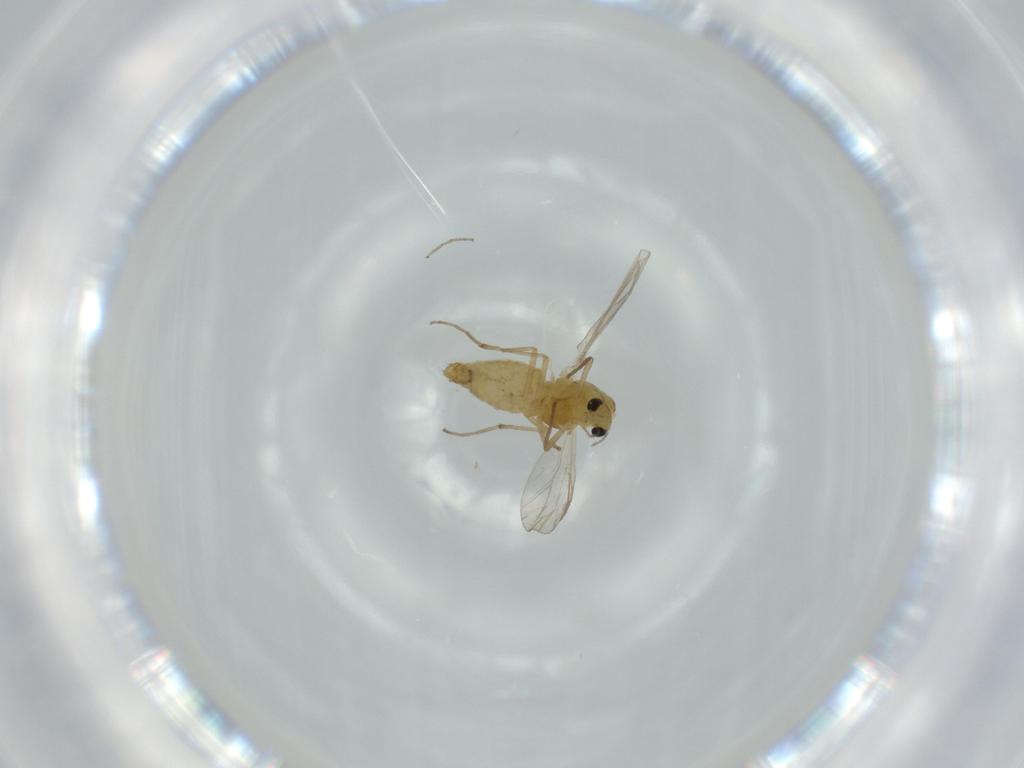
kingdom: Animalia
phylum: Arthropoda
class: Insecta
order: Diptera
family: Chironomidae
